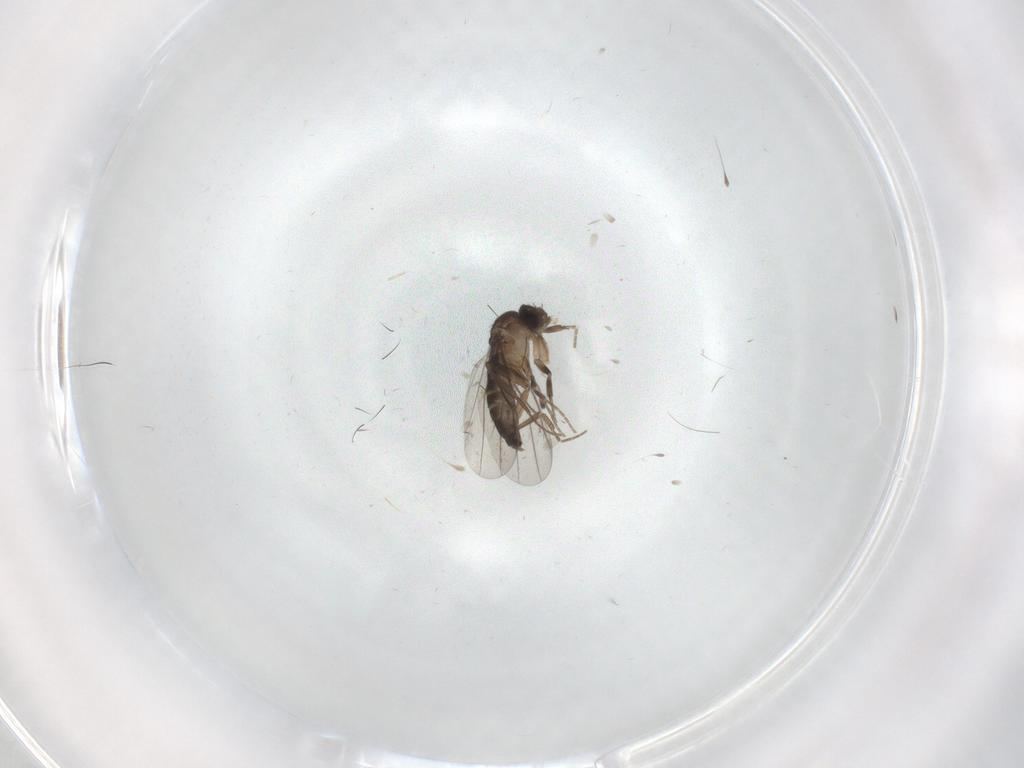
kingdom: Animalia
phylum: Arthropoda
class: Insecta
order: Diptera
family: Phoridae
